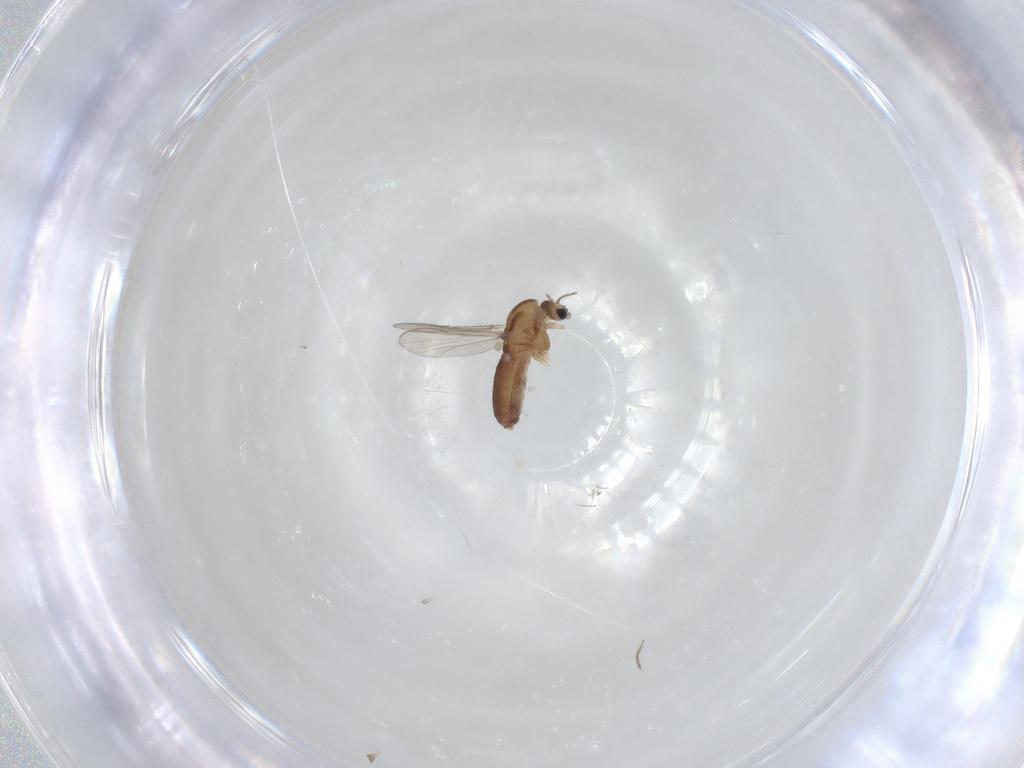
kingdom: Animalia
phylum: Arthropoda
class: Insecta
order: Diptera
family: Chironomidae
